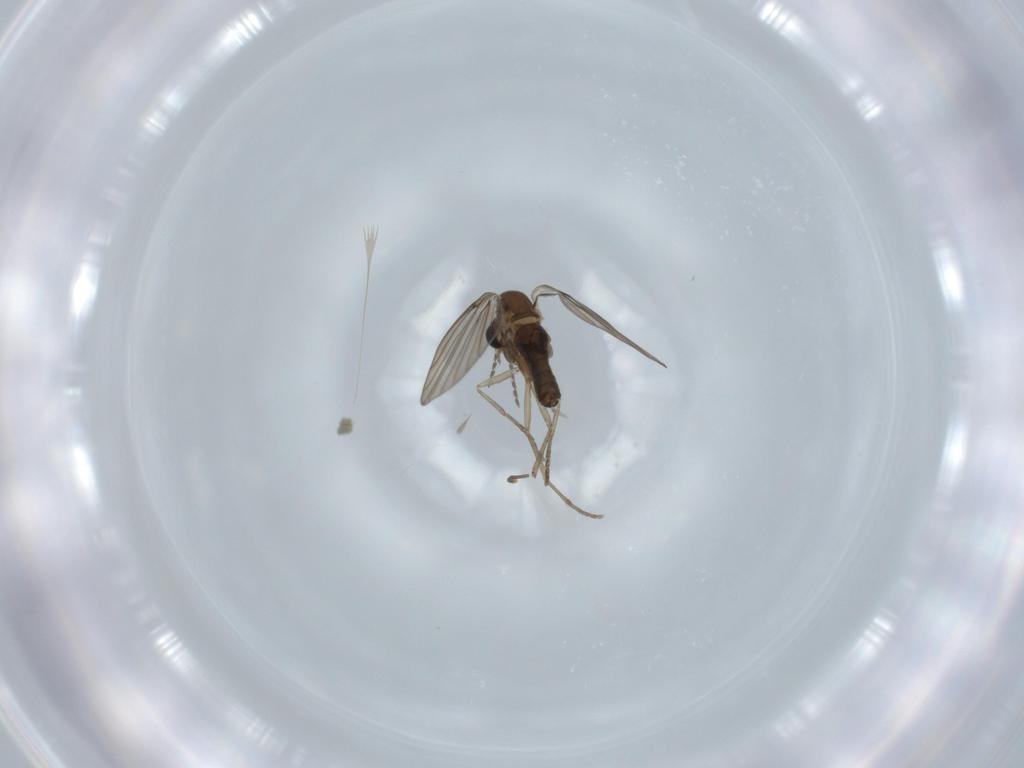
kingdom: Animalia
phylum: Arthropoda
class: Insecta
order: Diptera
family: Psychodidae
